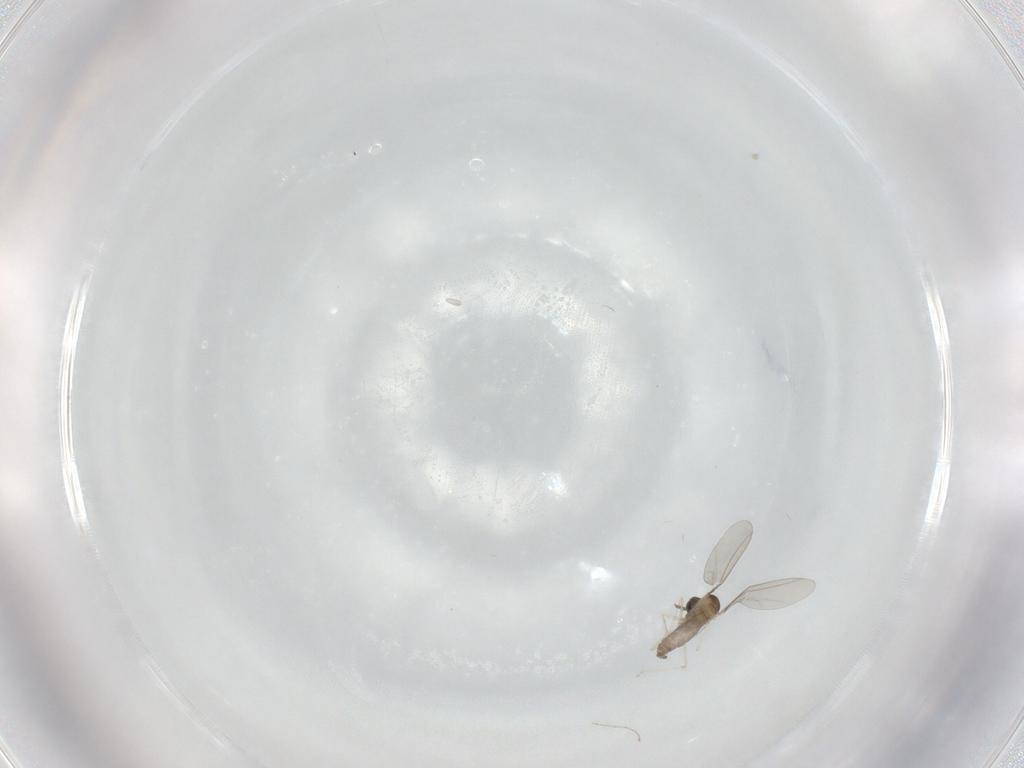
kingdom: Animalia
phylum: Arthropoda
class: Insecta
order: Diptera
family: Cecidomyiidae
